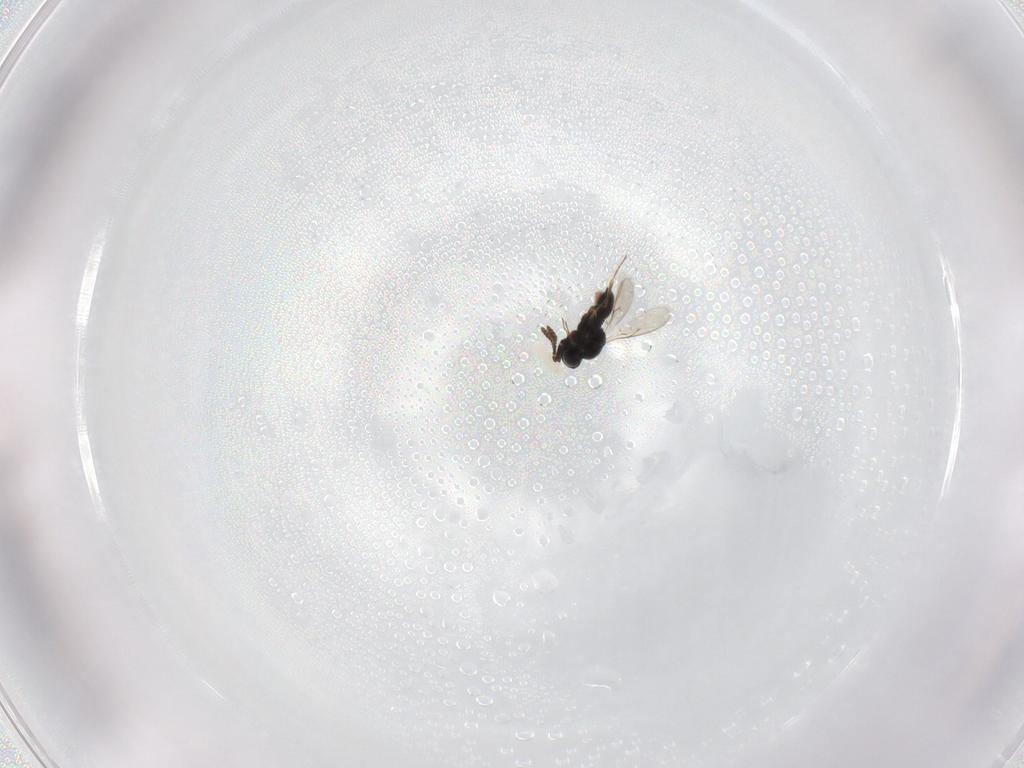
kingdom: Animalia
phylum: Arthropoda
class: Insecta
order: Hymenoptera
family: Scelionidae
